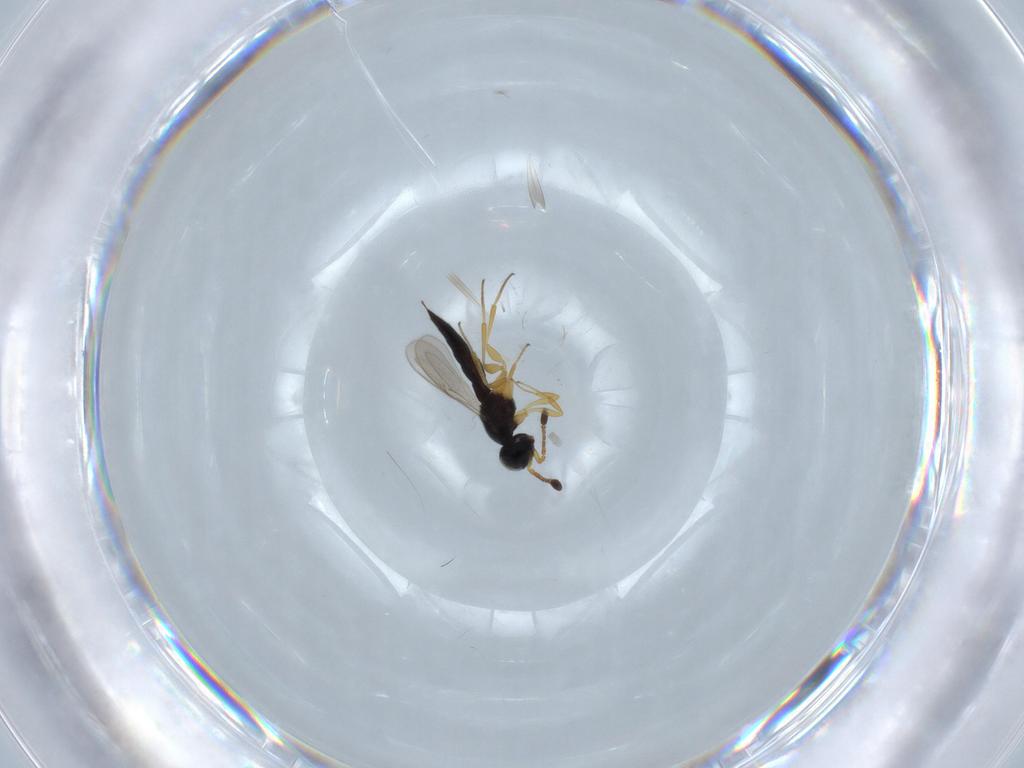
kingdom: Animalia
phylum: Arthropoda
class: Insecta
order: Hymenoptera
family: Scelionidae
